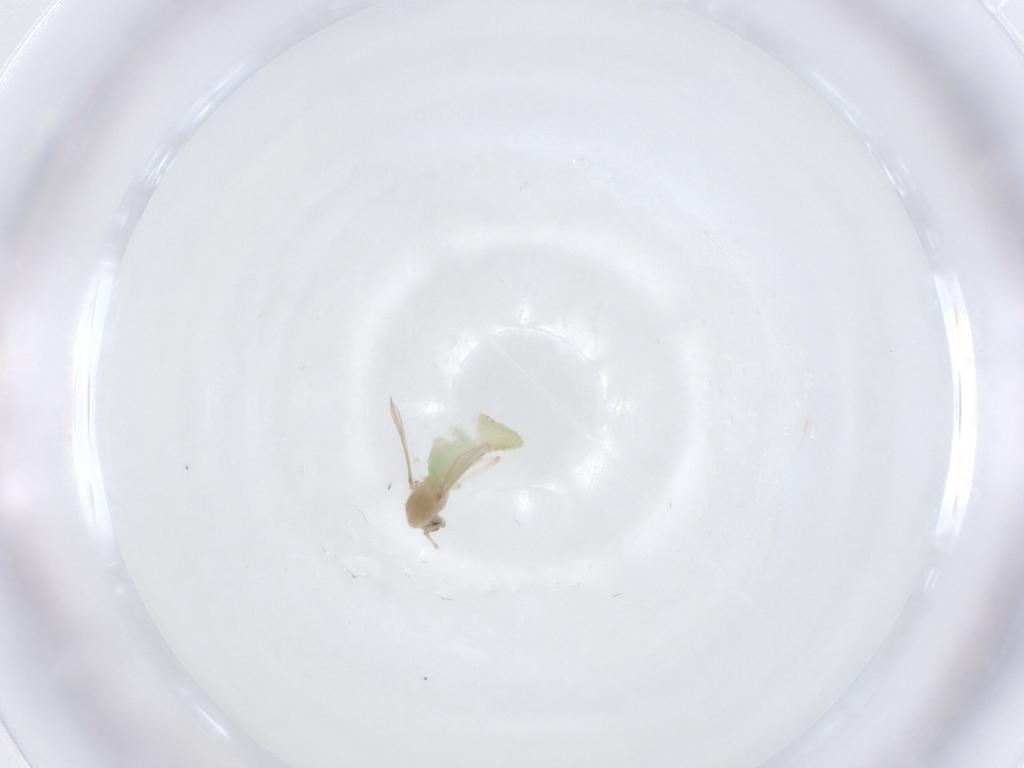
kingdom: Animalia
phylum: Arthropoda
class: Insecta
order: Diptera
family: Chironomidae
